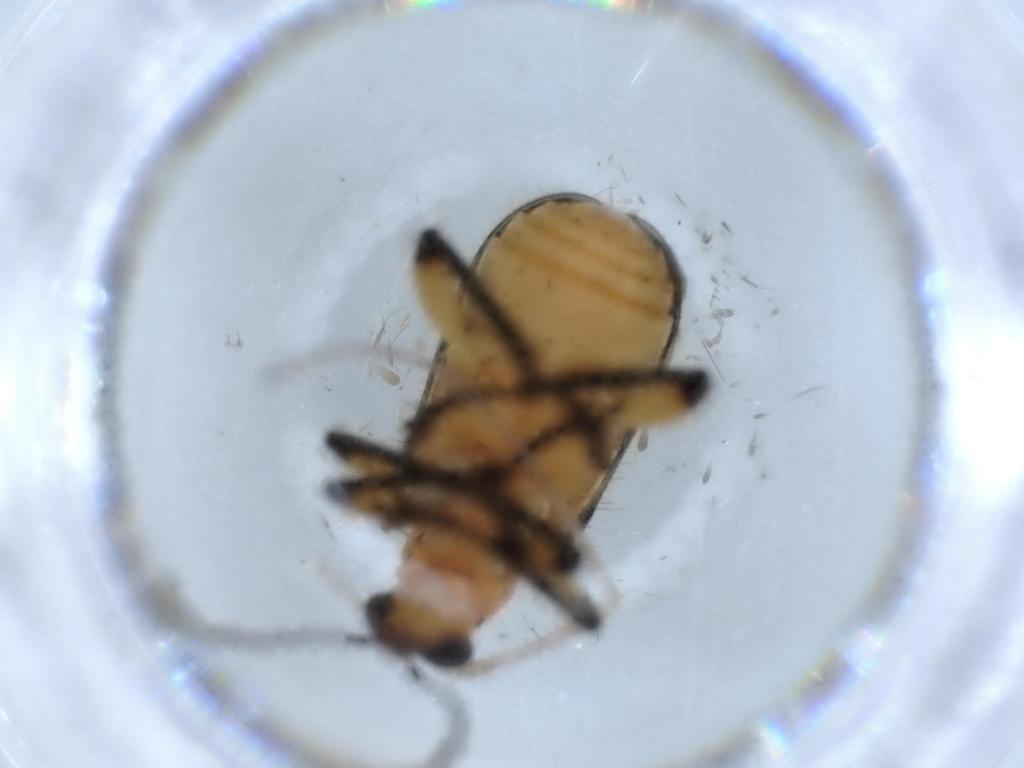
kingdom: Animalia
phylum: Arthropoda
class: Insecta
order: Coleoptera
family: Attelabidae
